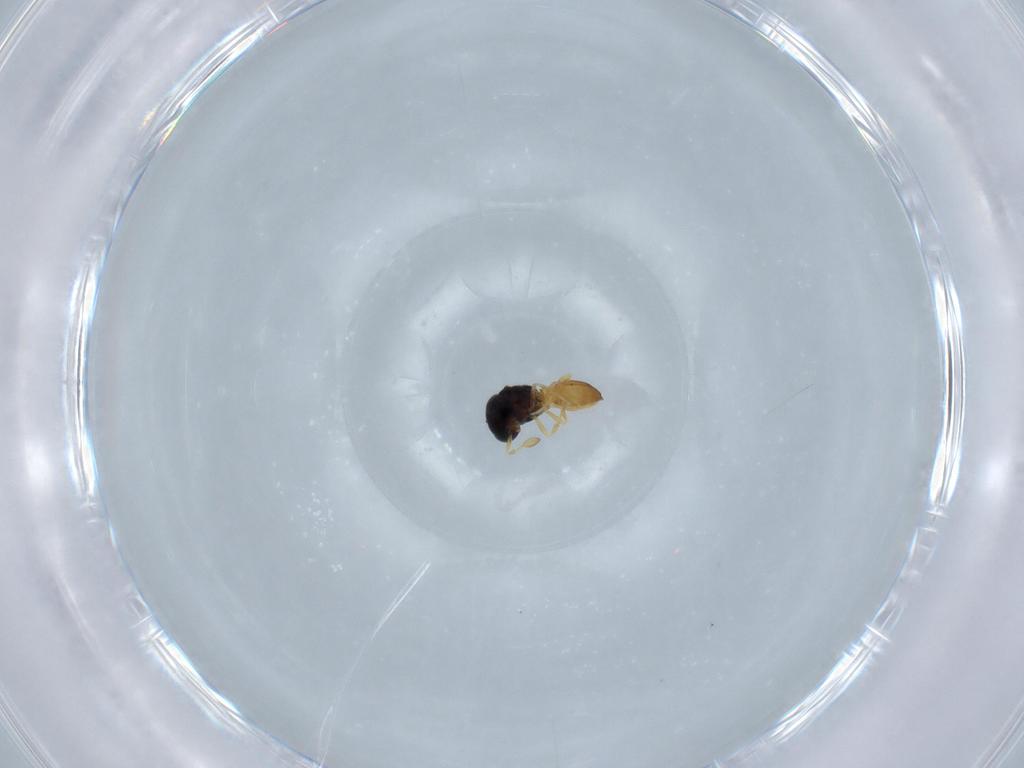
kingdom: Animalia
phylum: Arthropoda
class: Insecta
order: Hymenoptera
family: Scelionidae
